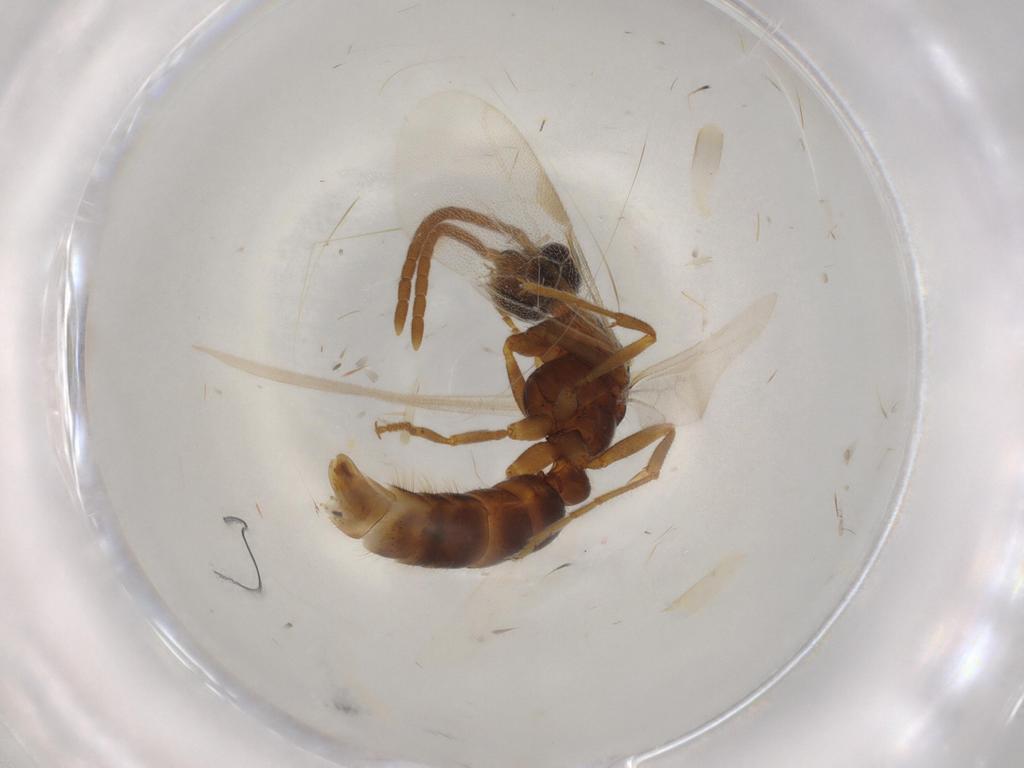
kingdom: Animalia
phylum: Arthropoda
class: Insecta
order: Hymenoptera
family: Formicidae
